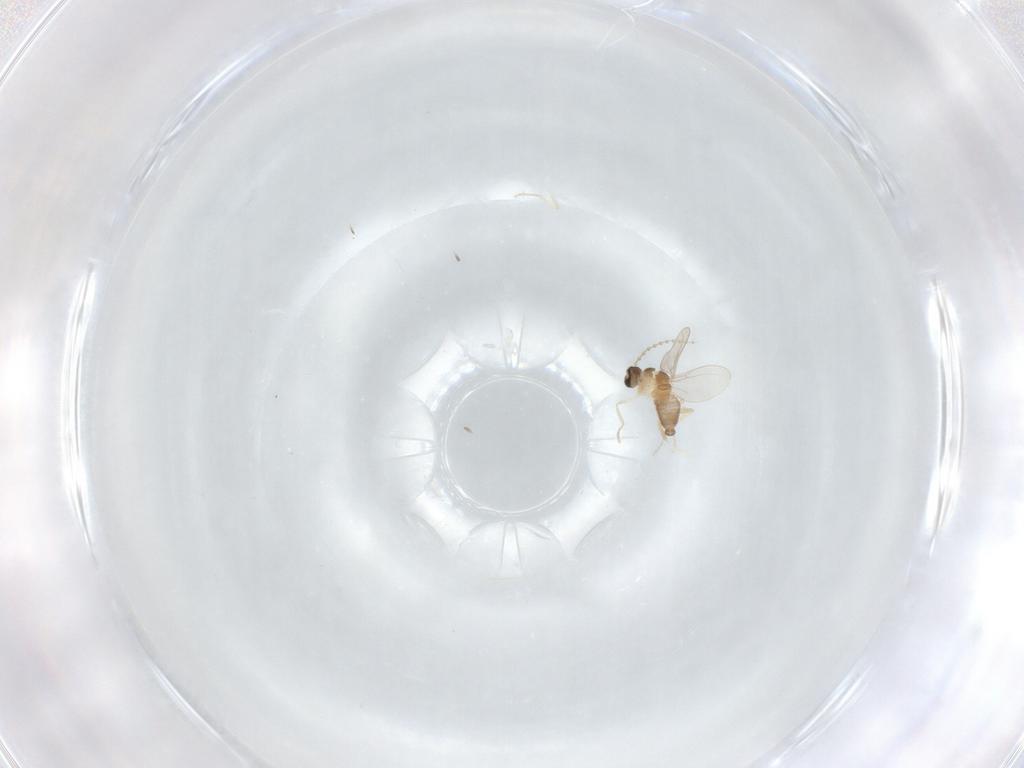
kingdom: Animalia
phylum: Arthropoda
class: Insecta
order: Diptera
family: Cecidomyiidae
